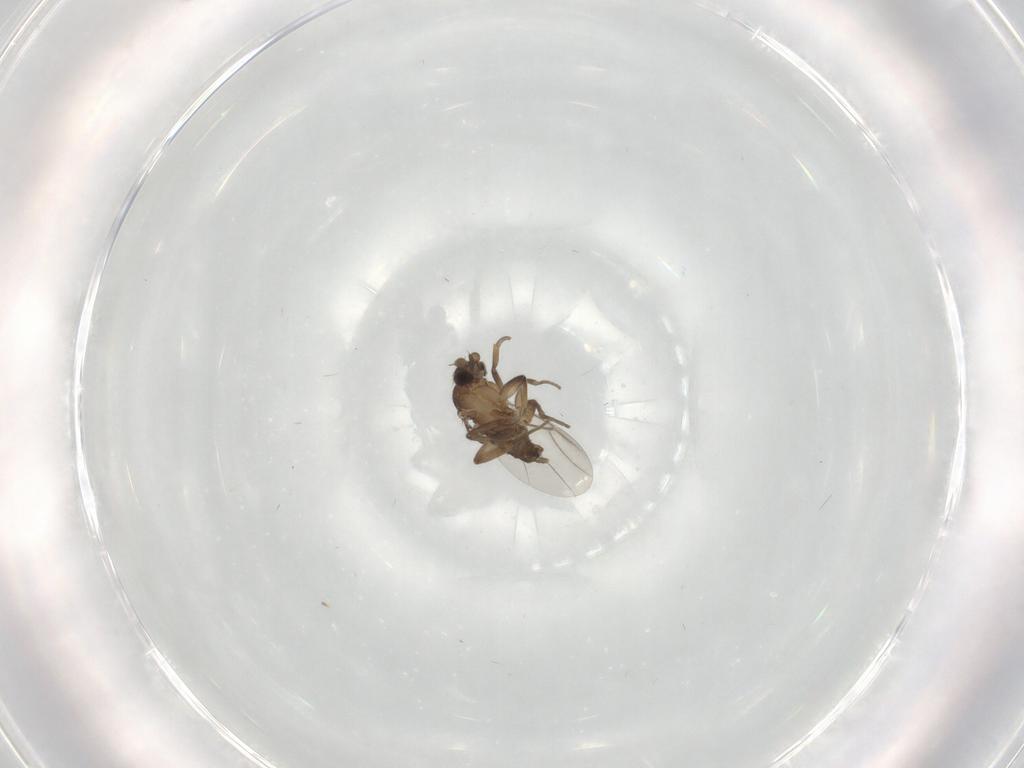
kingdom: Animalia
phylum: Arthropoda
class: Insecta
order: Diptera
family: Phoridae
